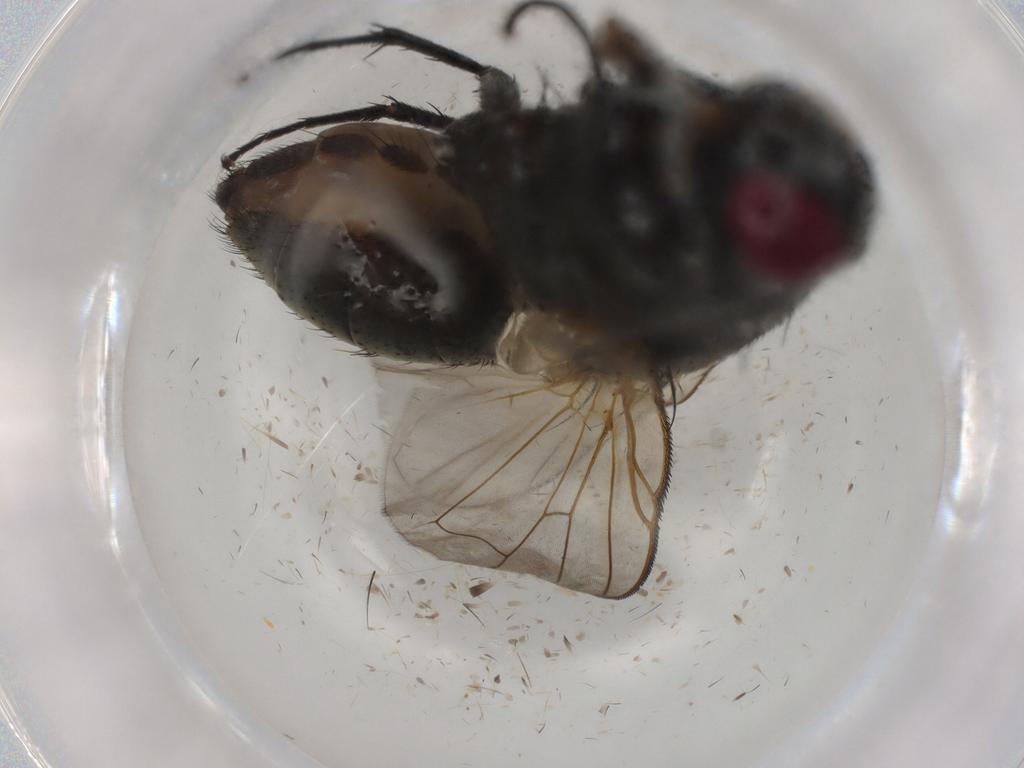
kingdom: Animalia
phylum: Arthropoda
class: Insecta
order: Diptera
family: Muscidae
